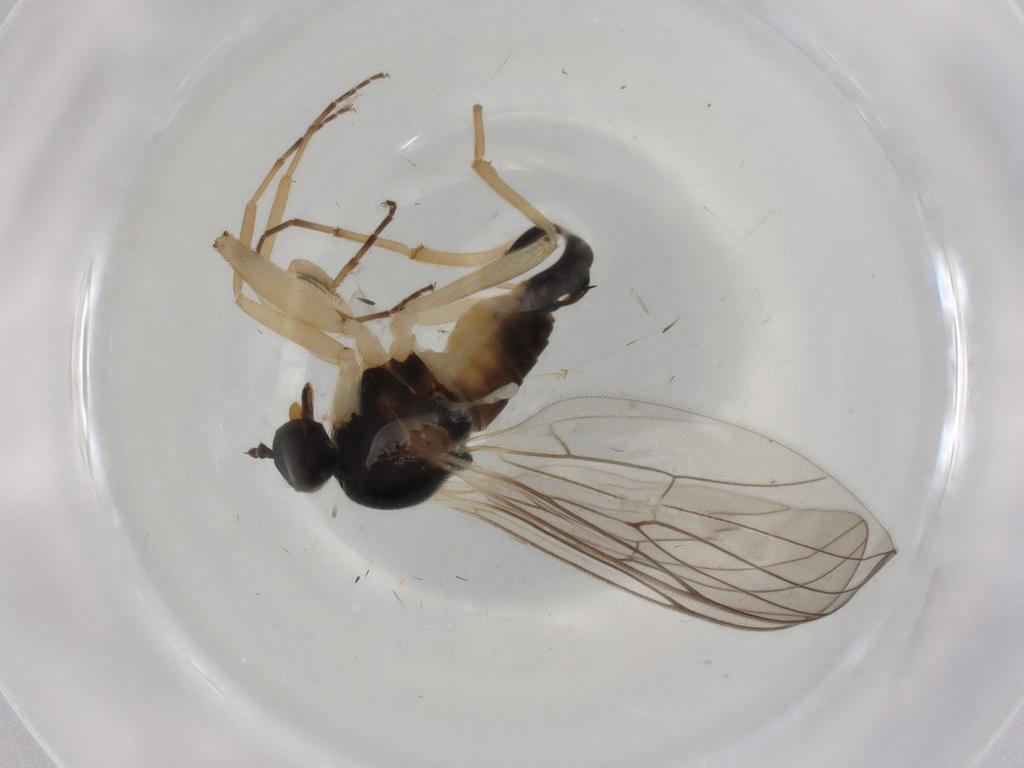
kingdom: Animalia
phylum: Arthropoda
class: Insecta
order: Diptera
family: Hybotidae
